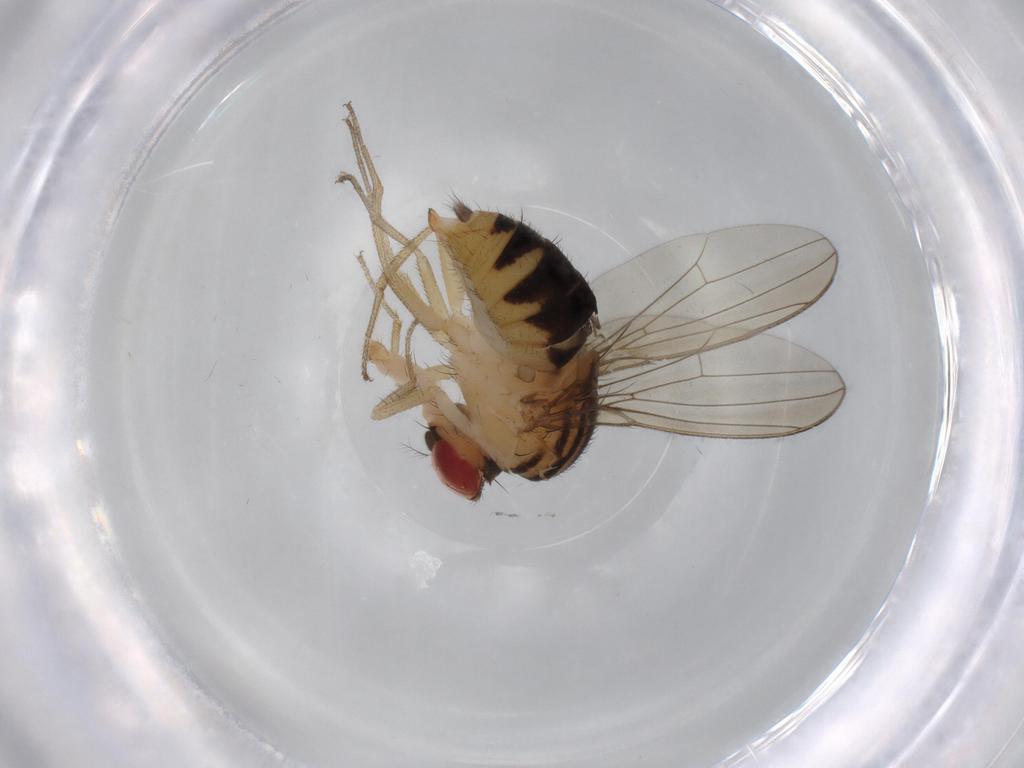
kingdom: Animalia
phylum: Arthropoda
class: Insecta
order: Diptera
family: Drosophilidae
